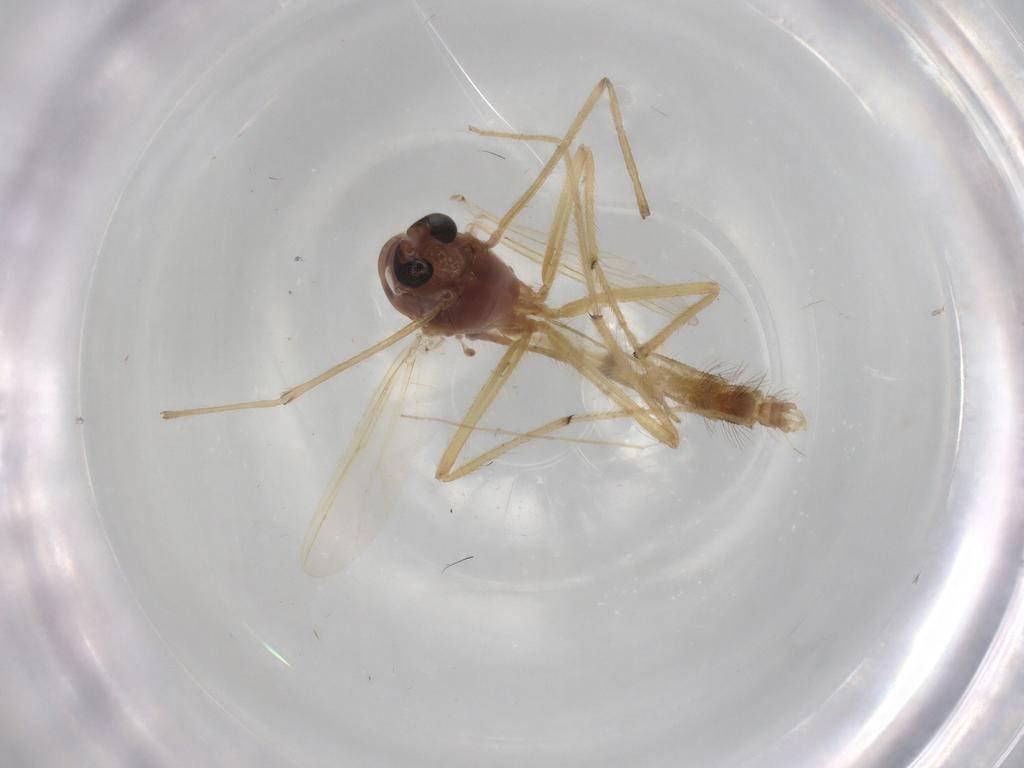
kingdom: Animalia
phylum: Arthropoda
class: Insecta
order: Diptera
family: Chironomidae
